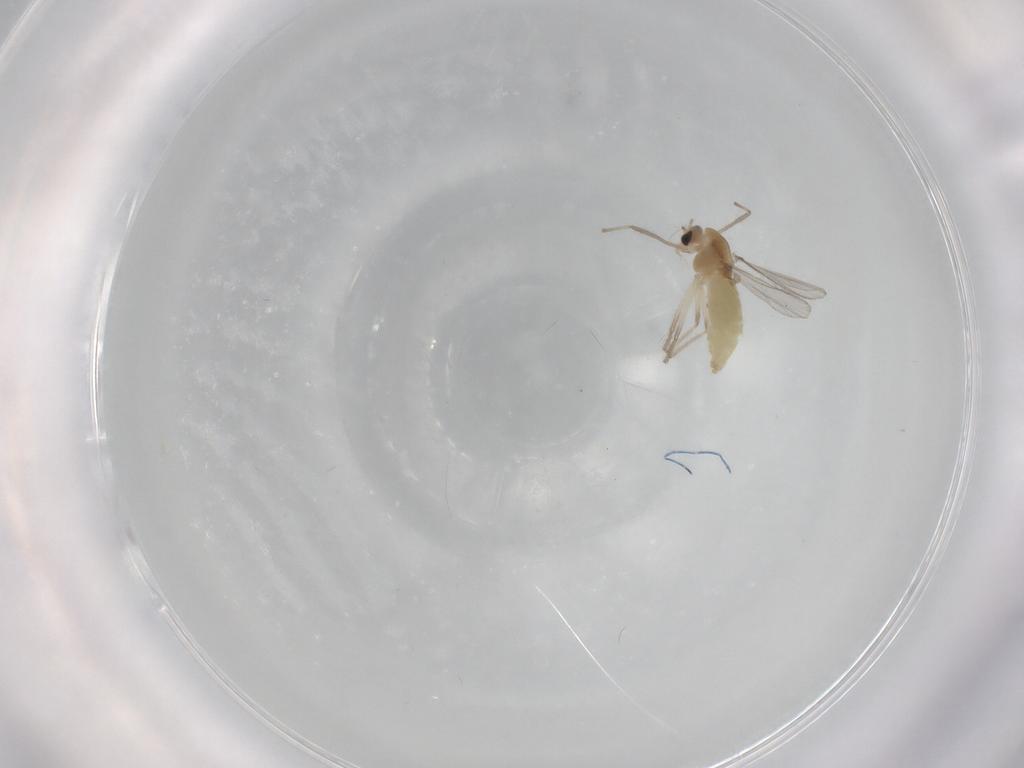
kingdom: Animalia
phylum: Arthropoda
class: Insecta
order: Diptera
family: Chironomidae
